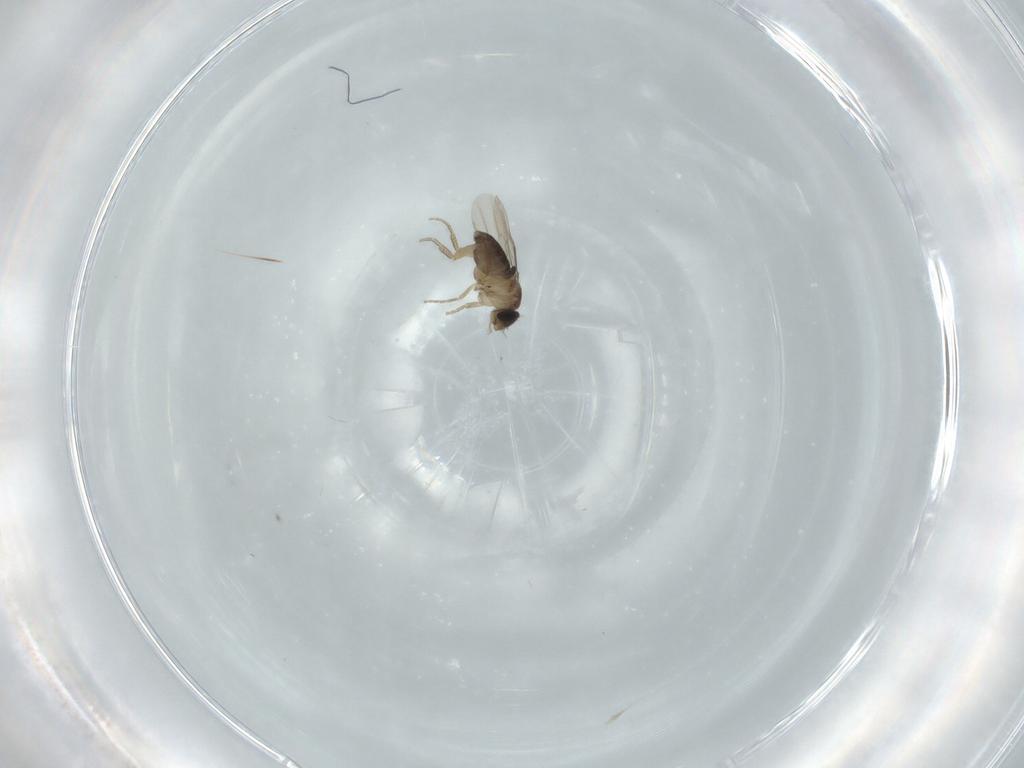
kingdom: Animalia
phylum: Arthropoda
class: Insecta
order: Diptera
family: Phoridae
